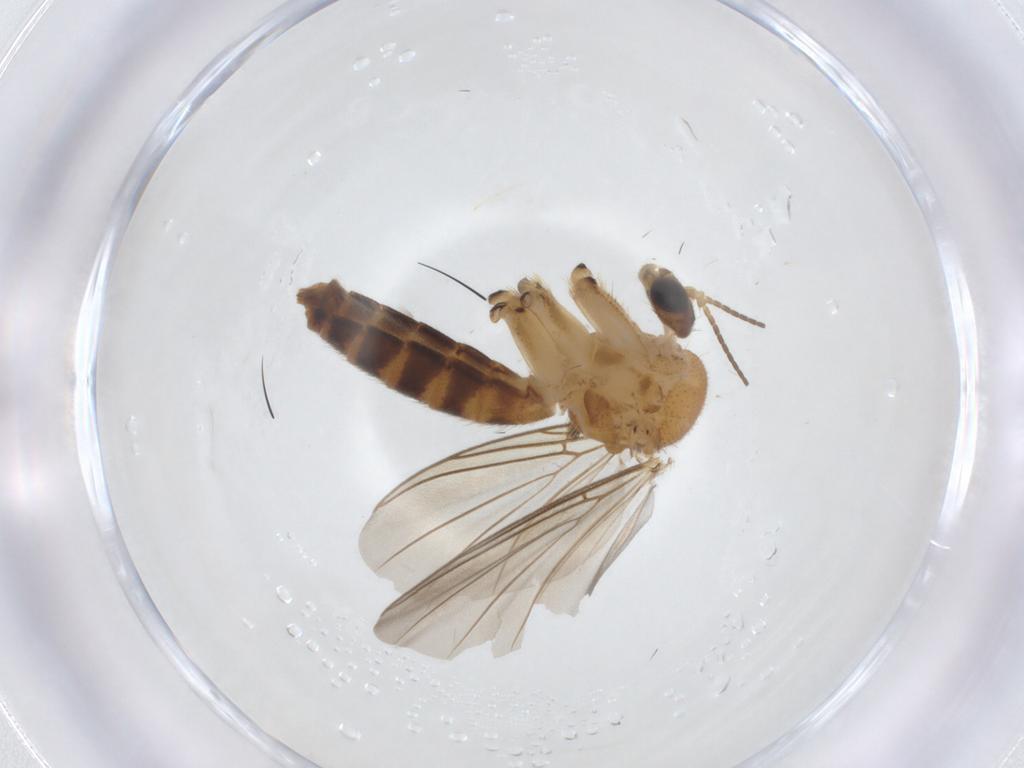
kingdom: Animalia
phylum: Arthropoda
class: Insecta
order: Diptera
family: Mycetophilidae
